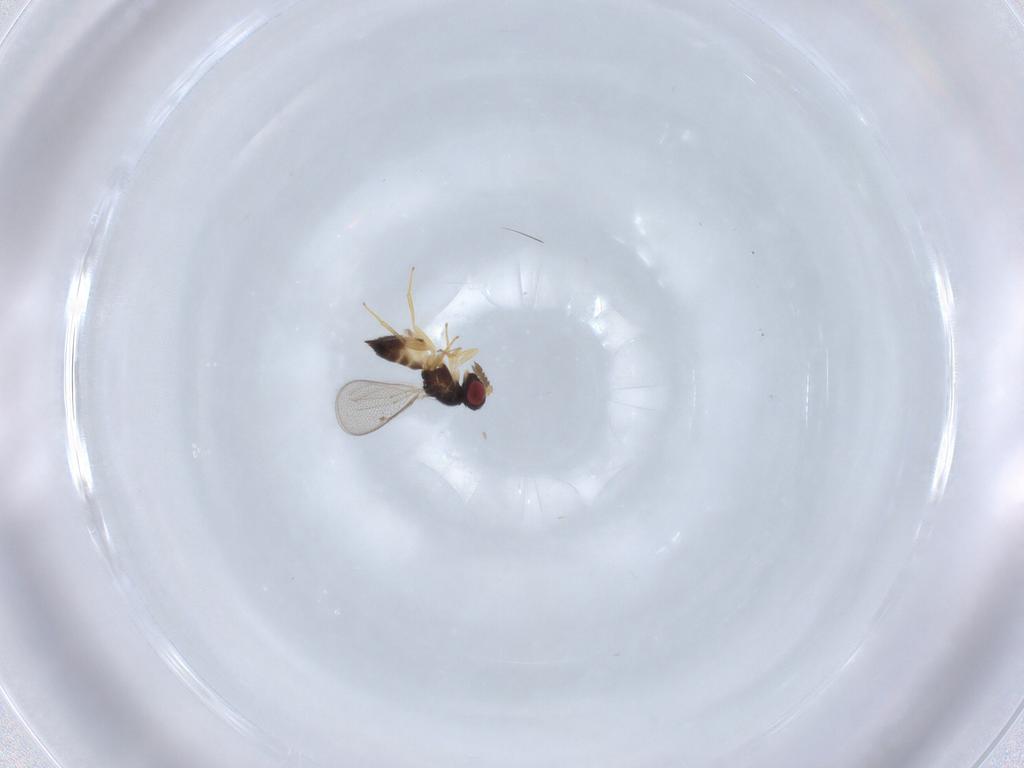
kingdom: Animalia
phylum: Arthropoda
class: Insecta
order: Hymenoptera
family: Eulophidae
